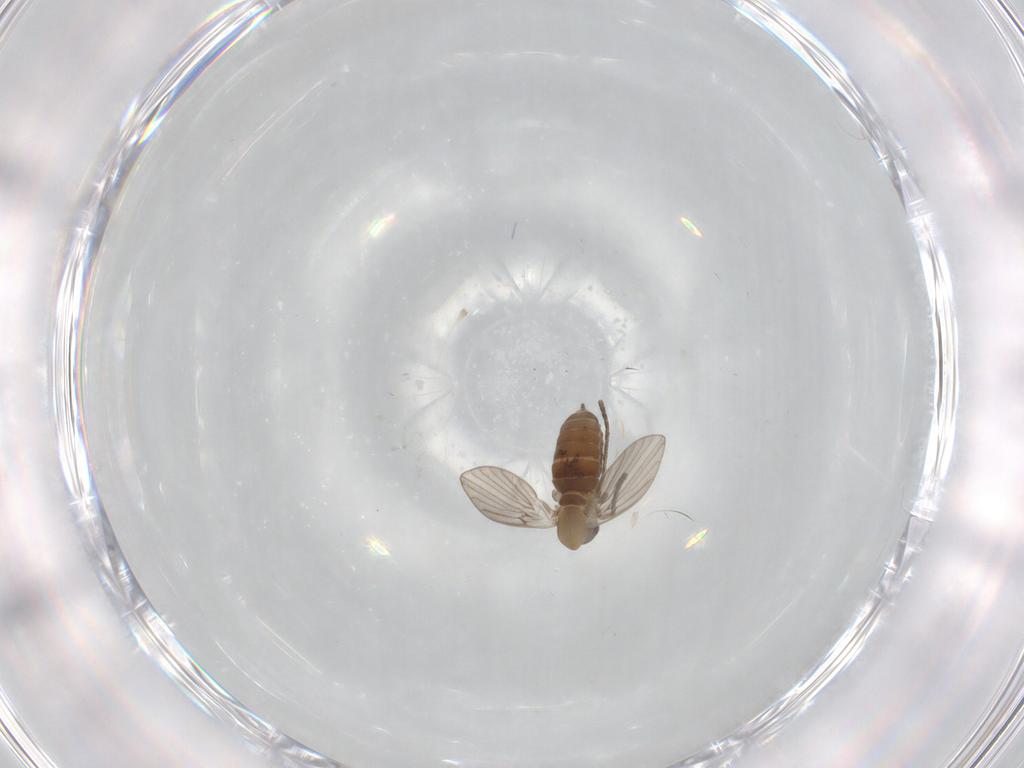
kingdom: Animalia
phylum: Arthropoda
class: Insecta
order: Diptera
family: Psychodidae
